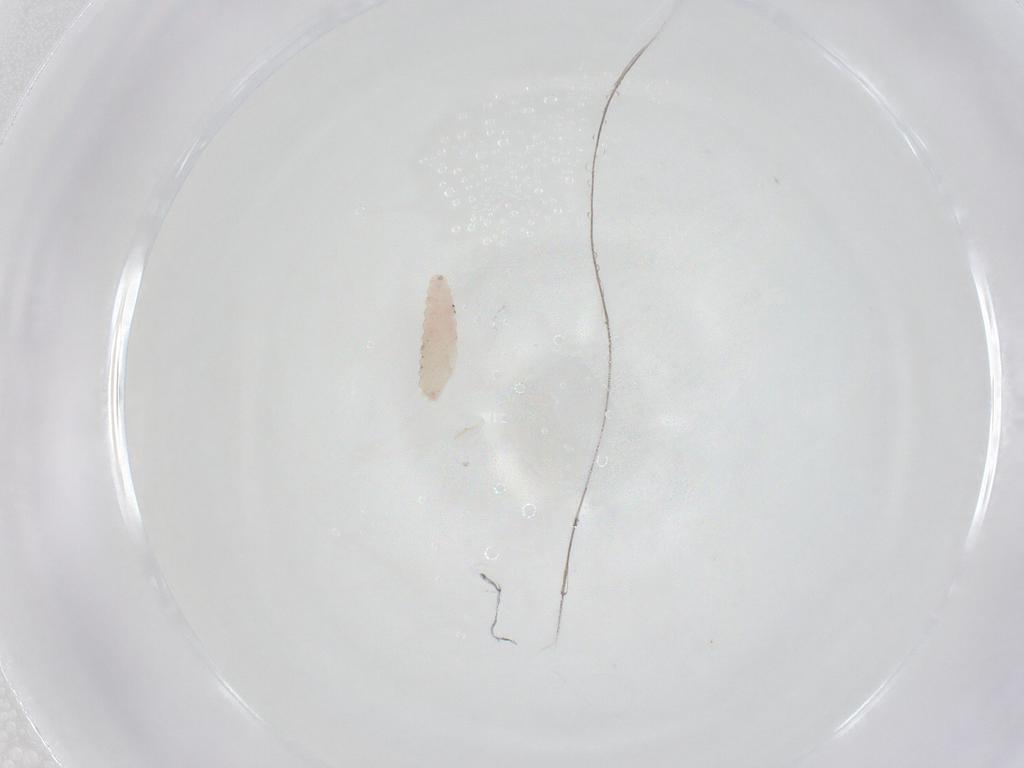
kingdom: Animalia
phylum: Arthropoda
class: Insecta
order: Diptera
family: Cecidomyiidae
